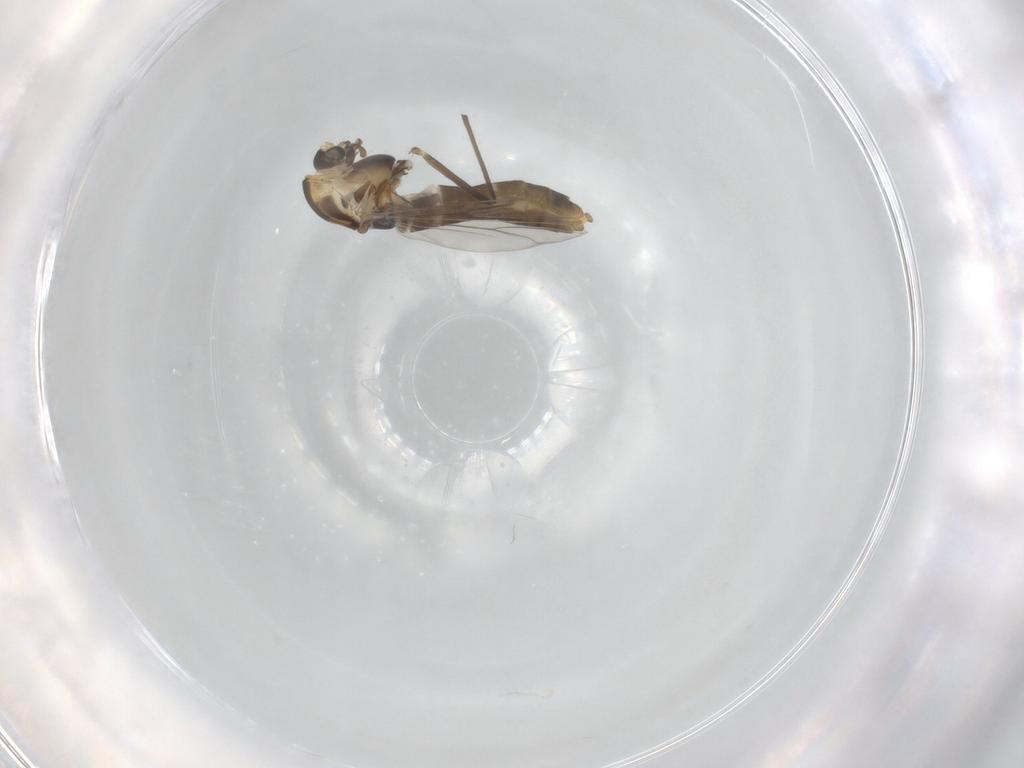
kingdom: Animalia
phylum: Arthropoda
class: Insecta
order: Diptera
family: Chironomidae
